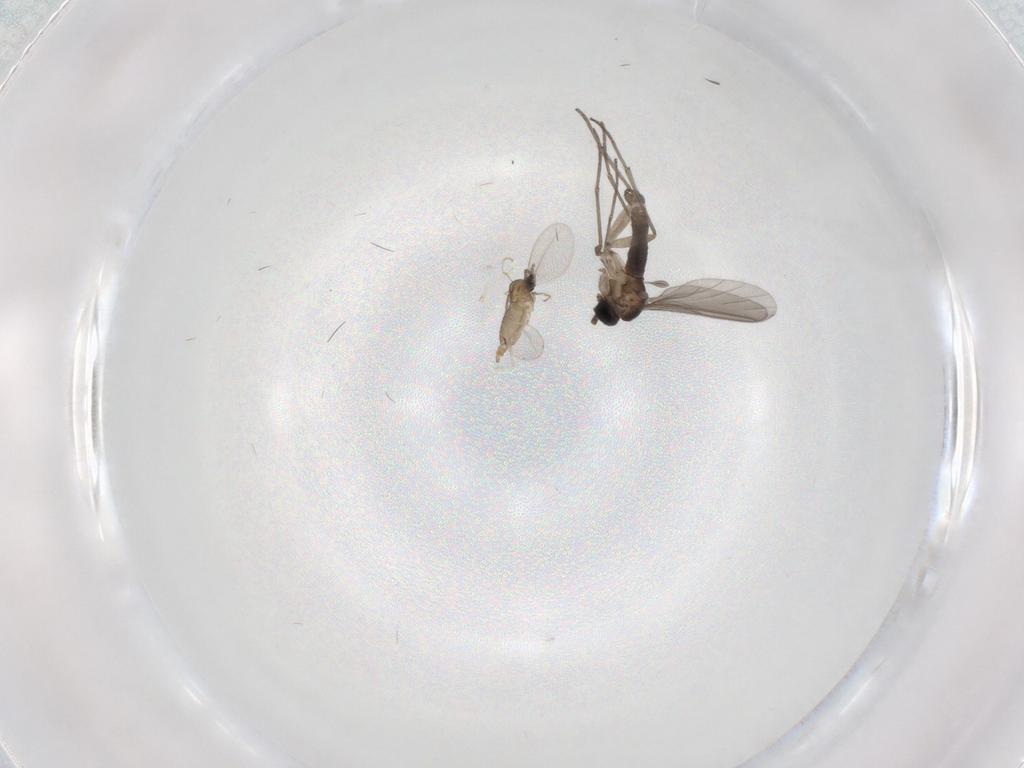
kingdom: Animalia
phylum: Arthropoda
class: Insecta
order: Diptera
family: Cecidomyiidae
